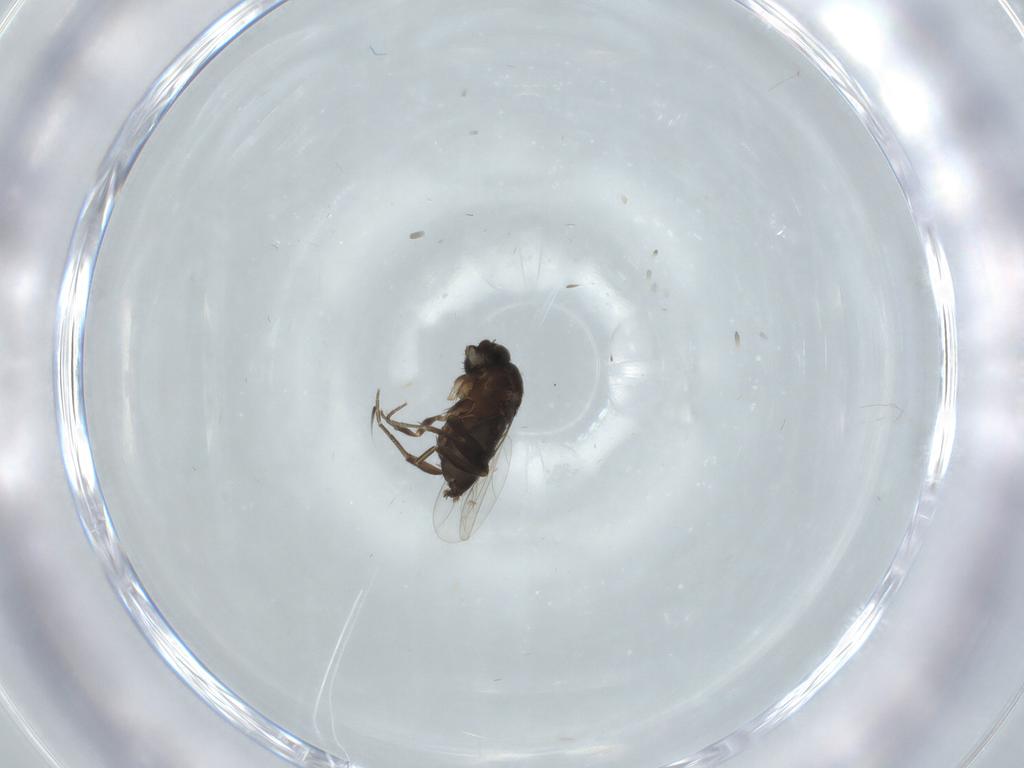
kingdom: Animalia
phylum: Arthropoda
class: Insecta
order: Diptera
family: Phoridae
